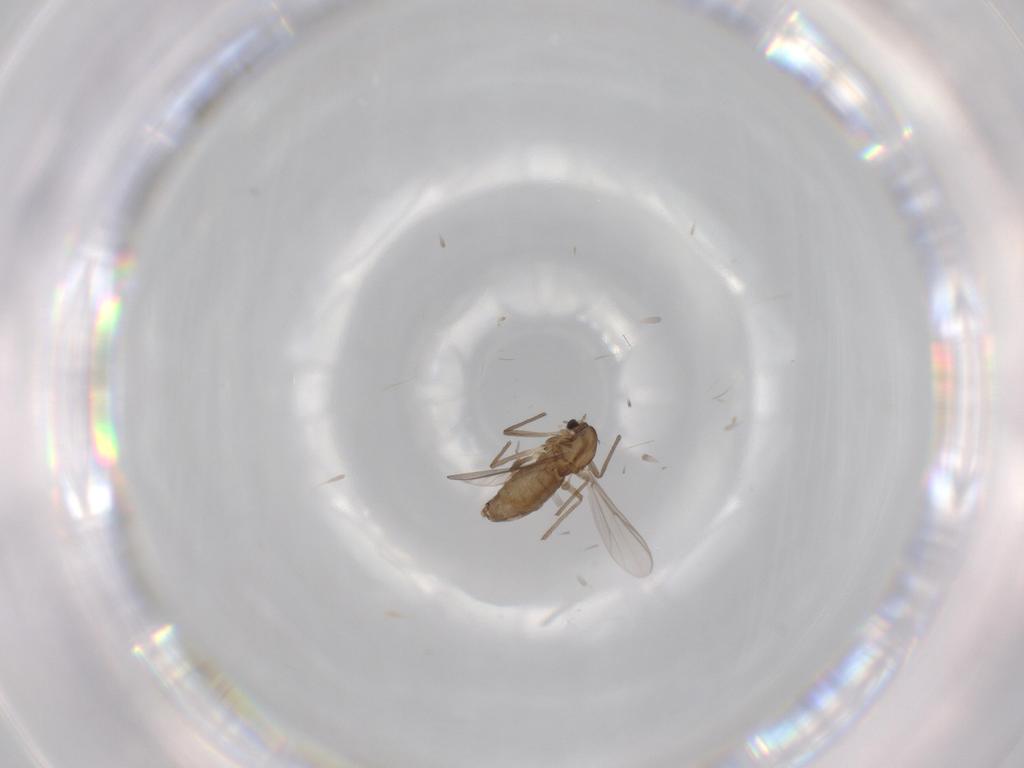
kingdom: Animalia
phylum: Arthropoda
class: Insecta
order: Diptera
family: Chironomidae
